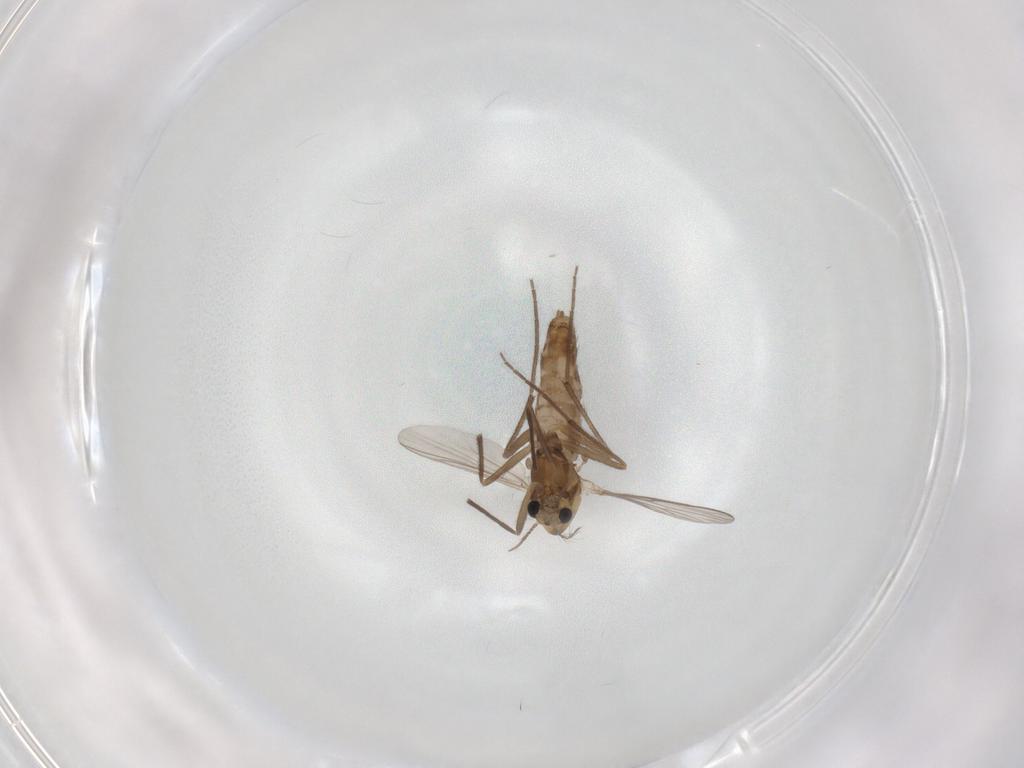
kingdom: Animalia
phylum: Arthropoda
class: Insecta
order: Diptera
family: Chironomidae
